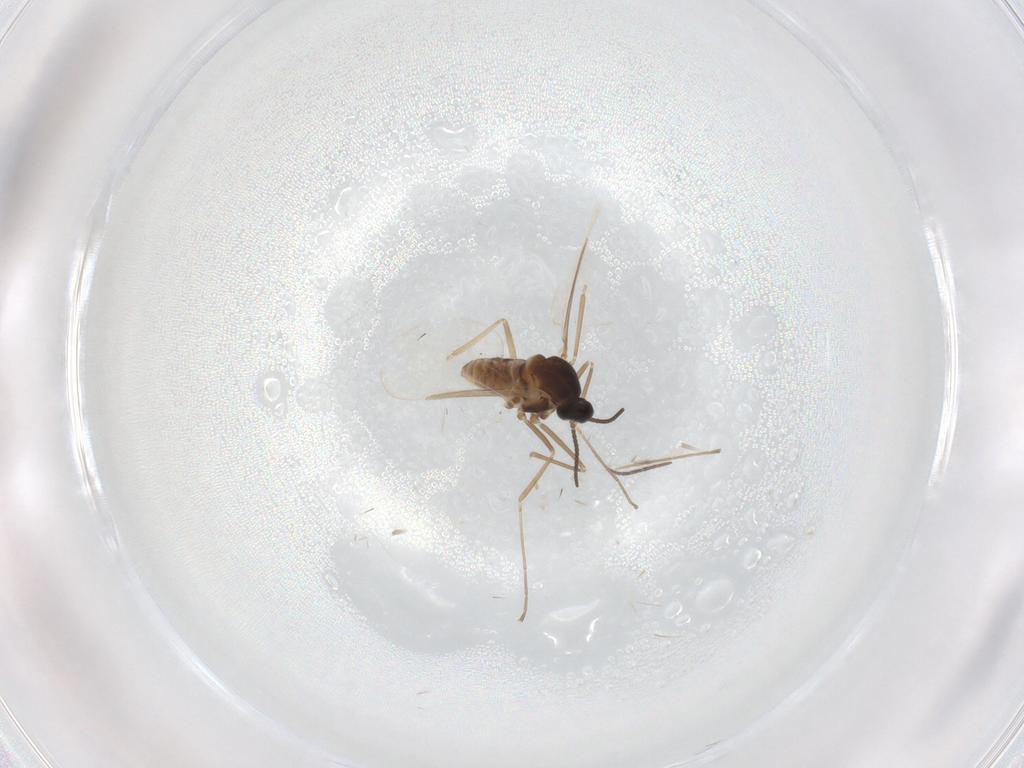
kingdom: Animalia
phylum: Arthropoda
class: Insecta
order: Diptera
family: Cecidomyiidae
